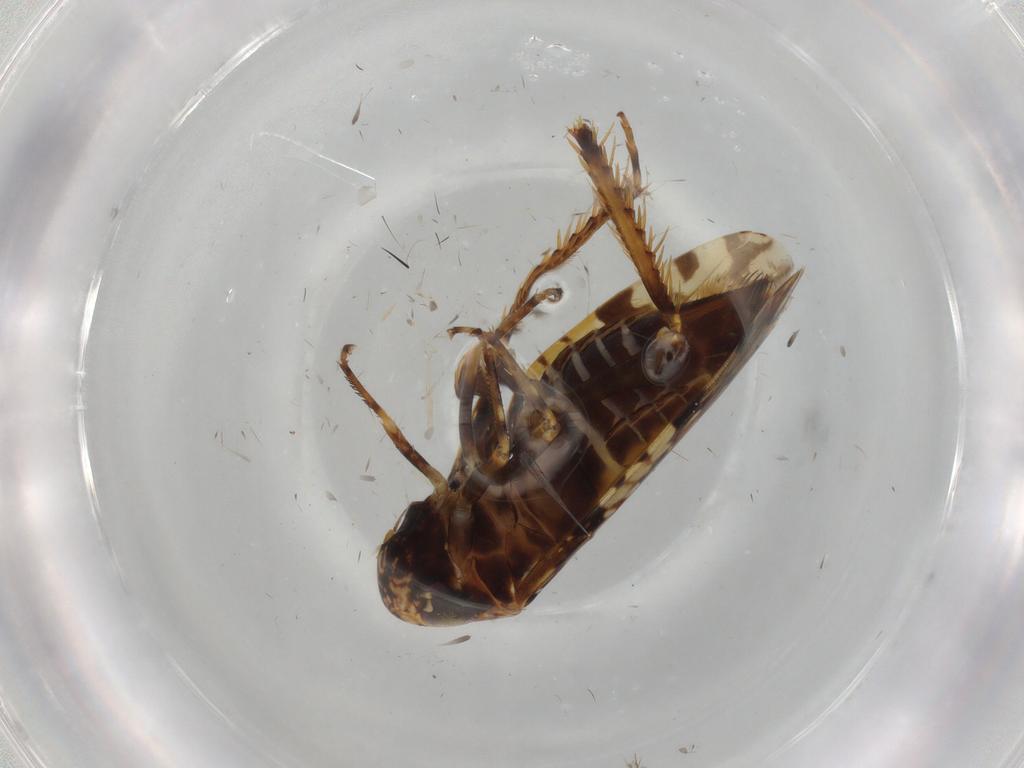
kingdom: Animalia
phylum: Arthropoda
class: Insecta
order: Hemiptera
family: Cicadellidae
